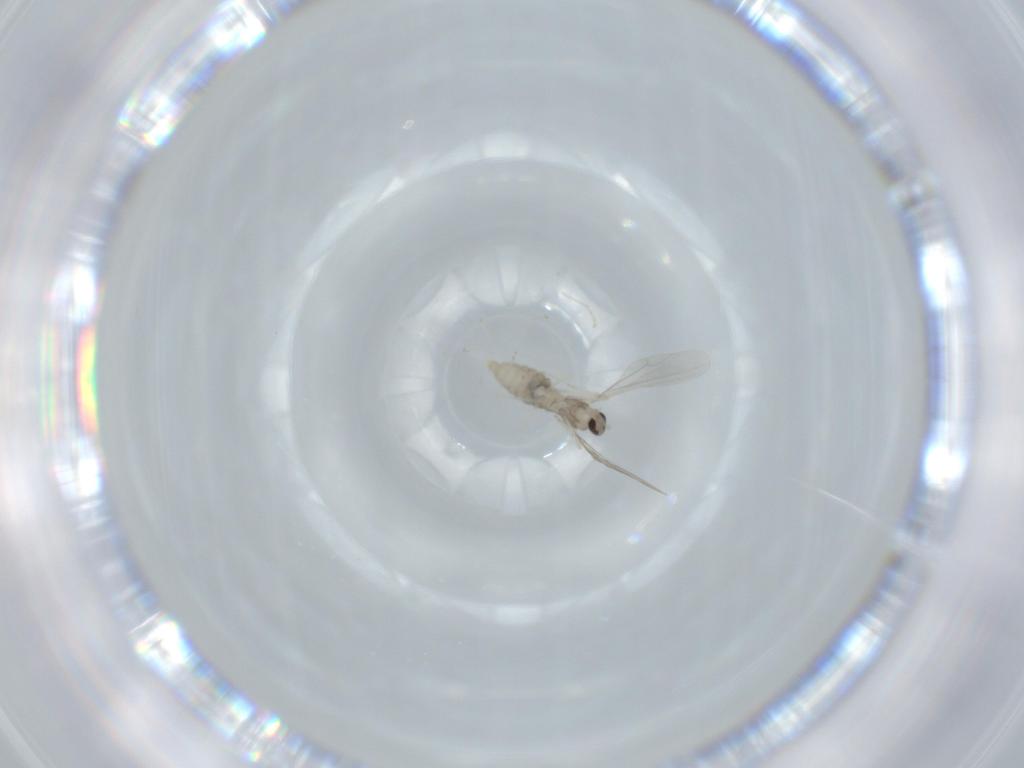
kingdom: Animalia
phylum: Arthropoda
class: Insecta
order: Diptera
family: Cecidomyiidae
